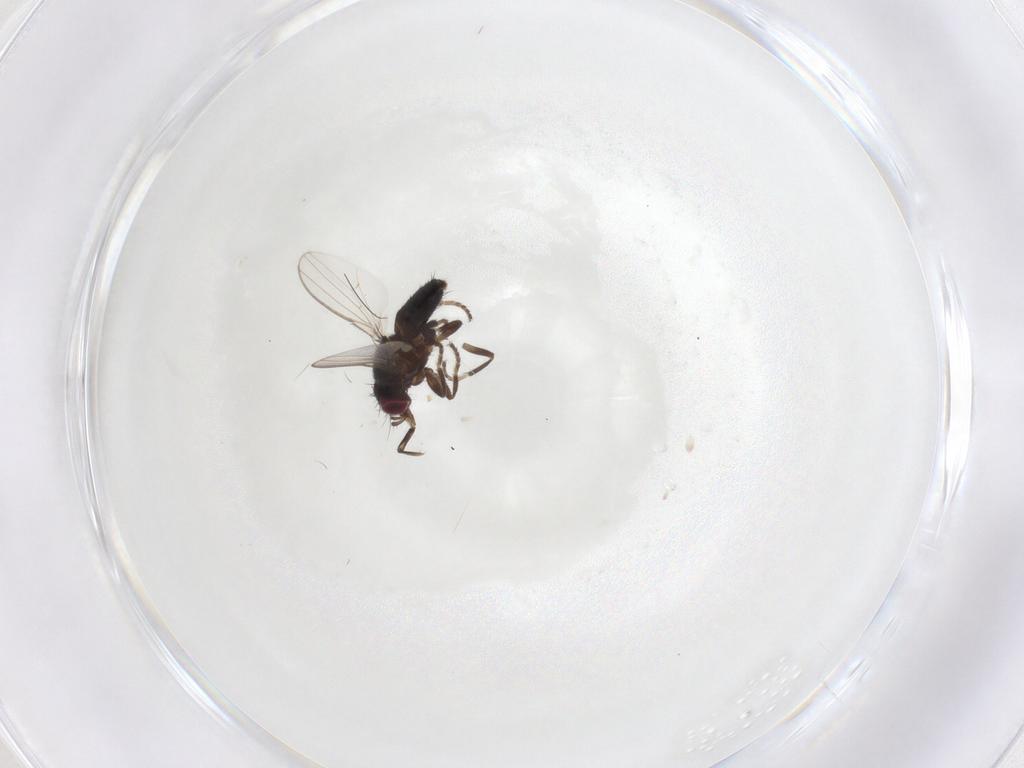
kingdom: Animalia
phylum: Arthropoda
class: Insecta
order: Diptera
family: Milichiidae
